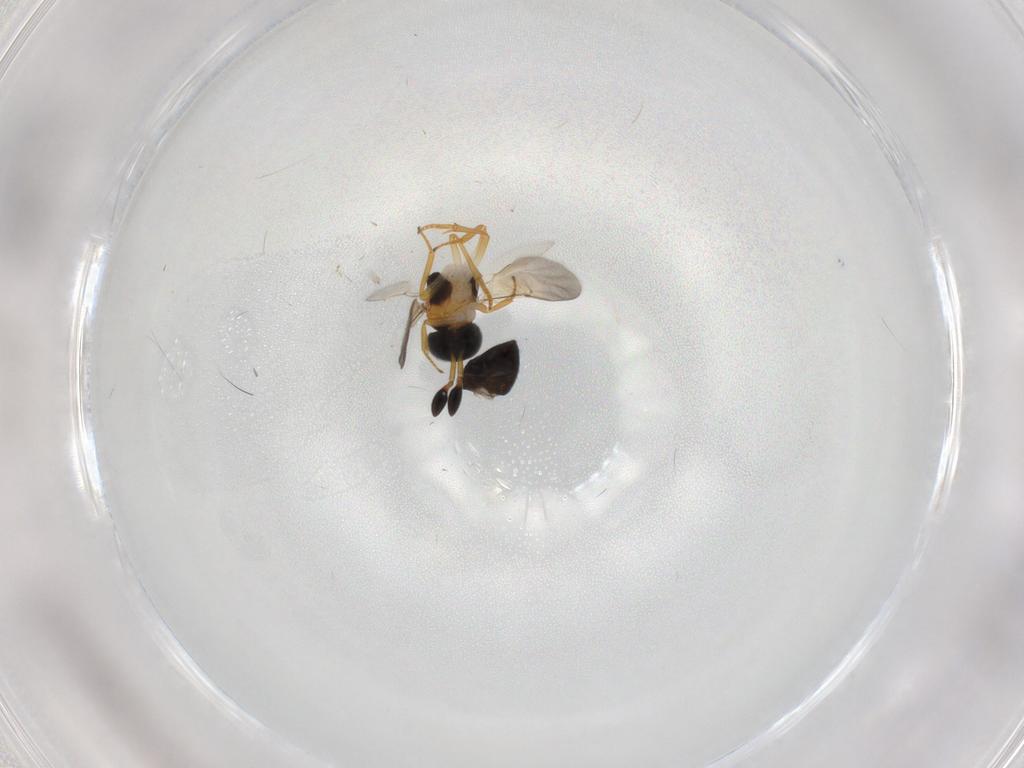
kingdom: Animalia
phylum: Arthropoda
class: Insecta
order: Hymenoptera
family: Encyrtidae
